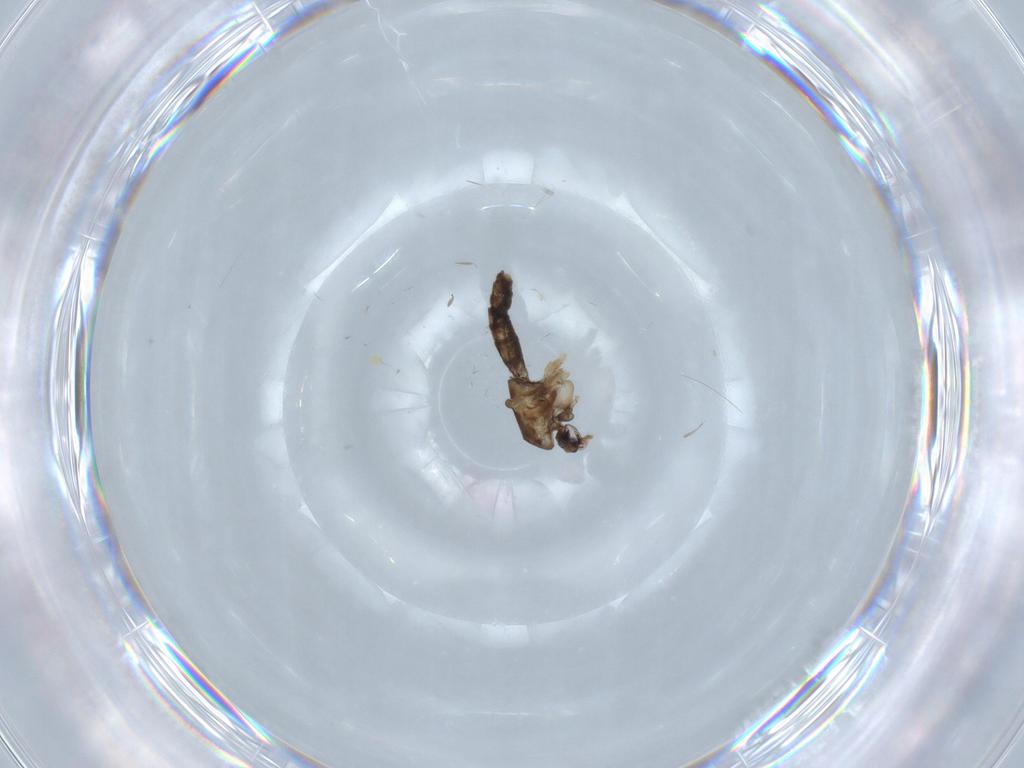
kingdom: Animalia
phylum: Arthropoda
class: Insecta
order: Diptera
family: Chironomidae
